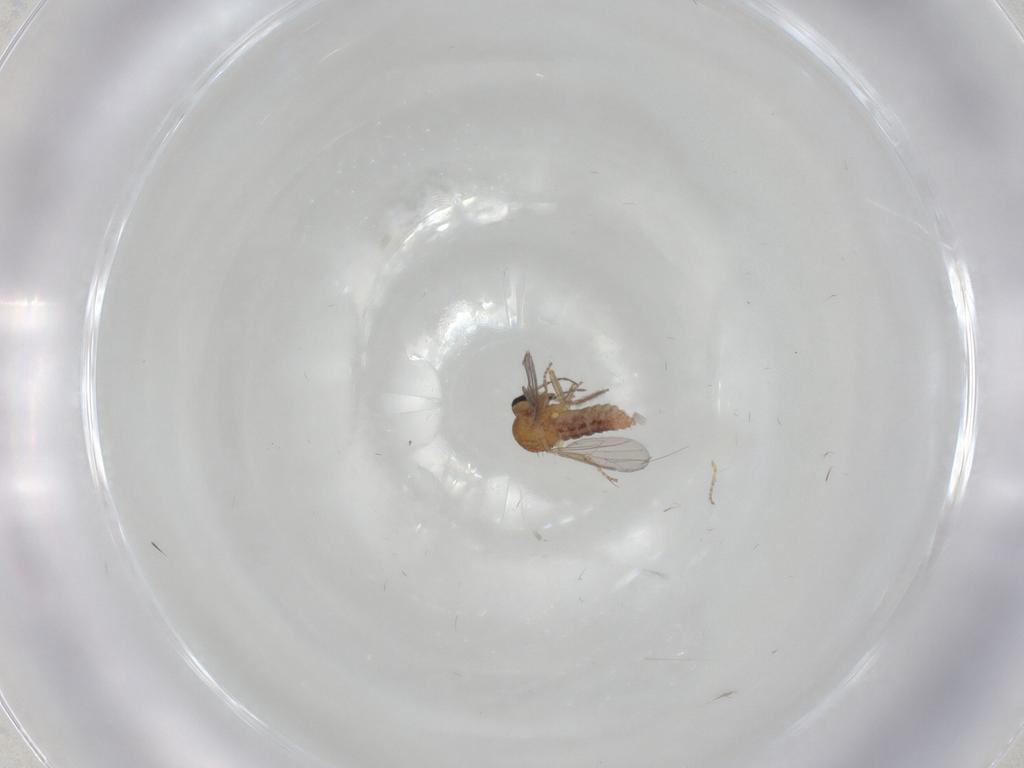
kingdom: Animalia
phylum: Arthropoda
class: Insecta
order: Diptera
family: Ceratopogonidae
